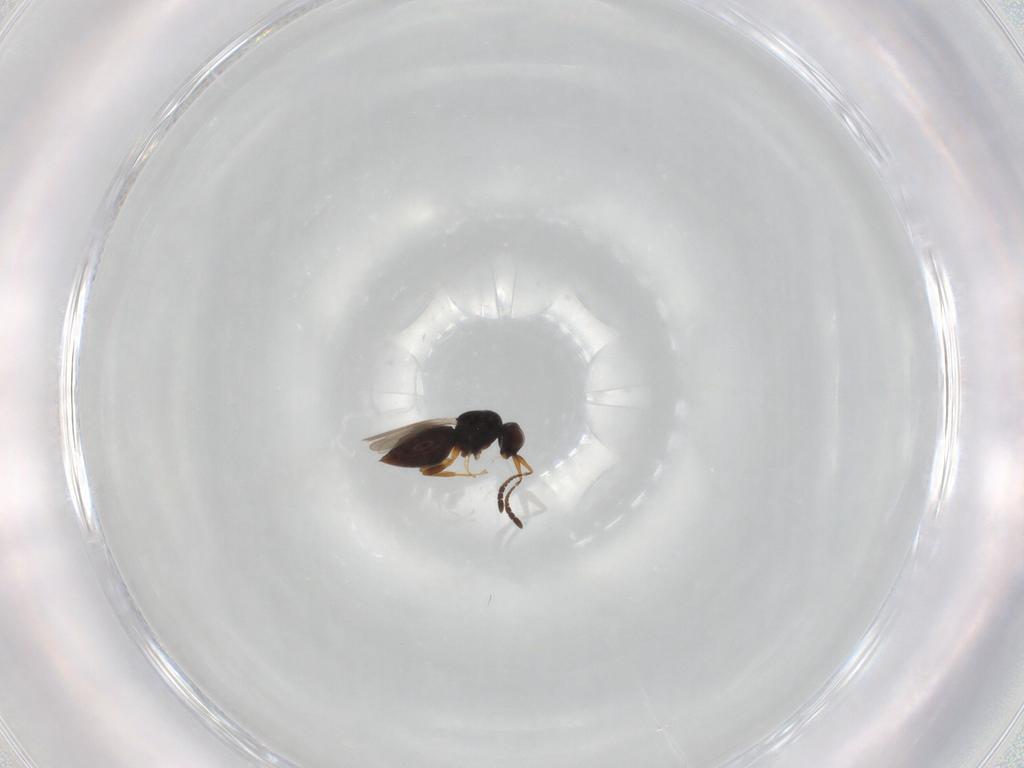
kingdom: Animalia
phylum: Arthropoda
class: Insecta
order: Hymenoptera
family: Ceraphronidae
